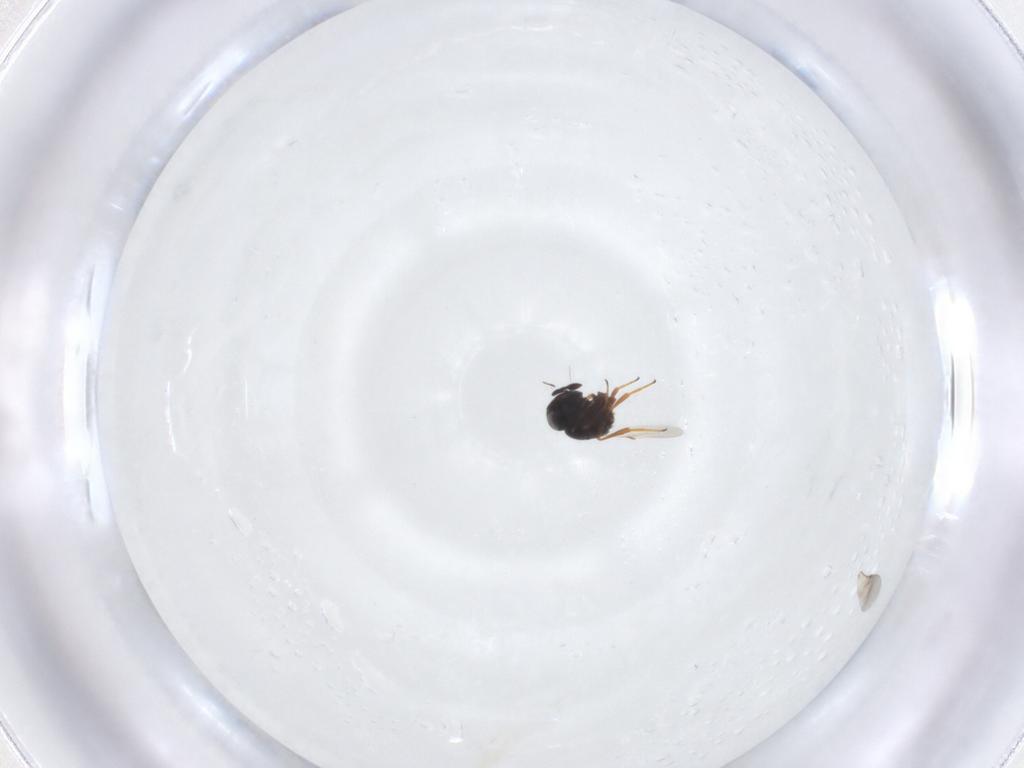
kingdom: Animalia
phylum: Arthropoda
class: Insecta
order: Hymenoptera
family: Scelionidae
